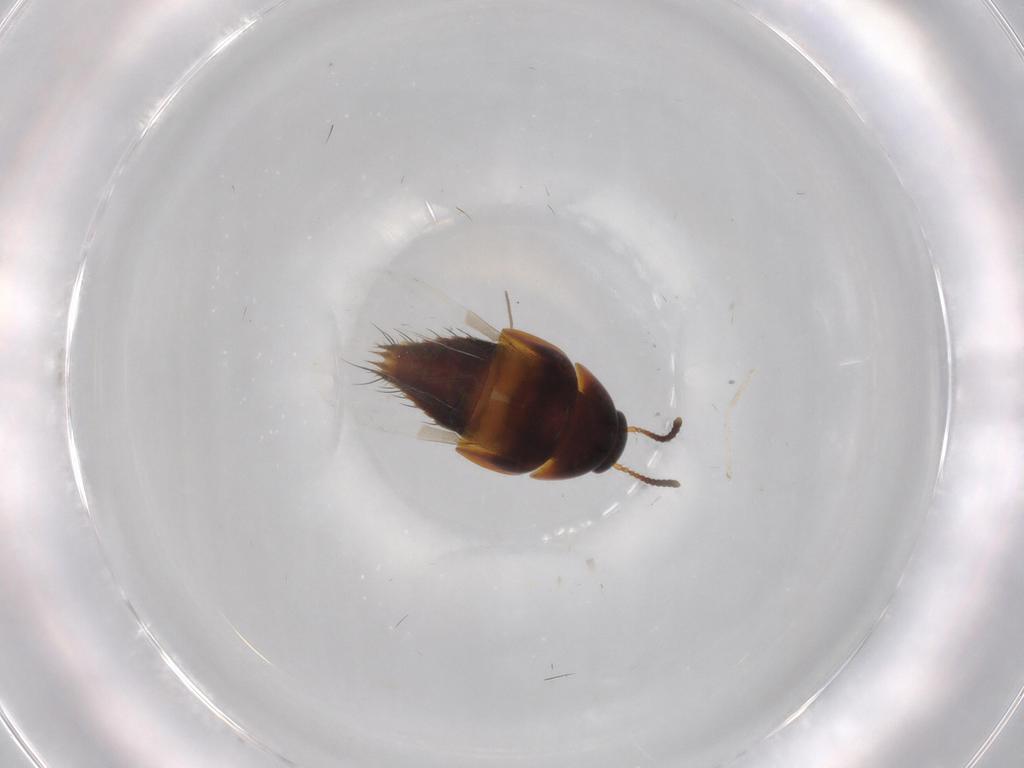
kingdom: Animalia
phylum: Arthropoda
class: Insecta
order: Coleoptera
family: Staphylinidae
